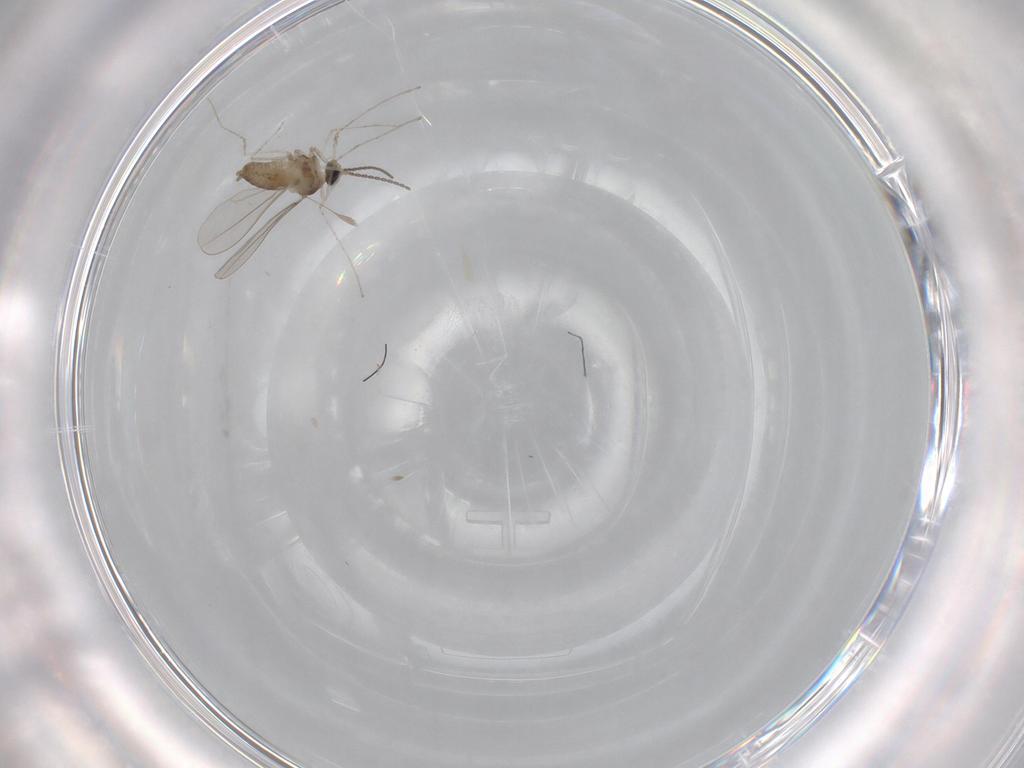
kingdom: Animalia
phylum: Arthropoda
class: Insecta
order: Diptera
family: Cecidomyiidae
